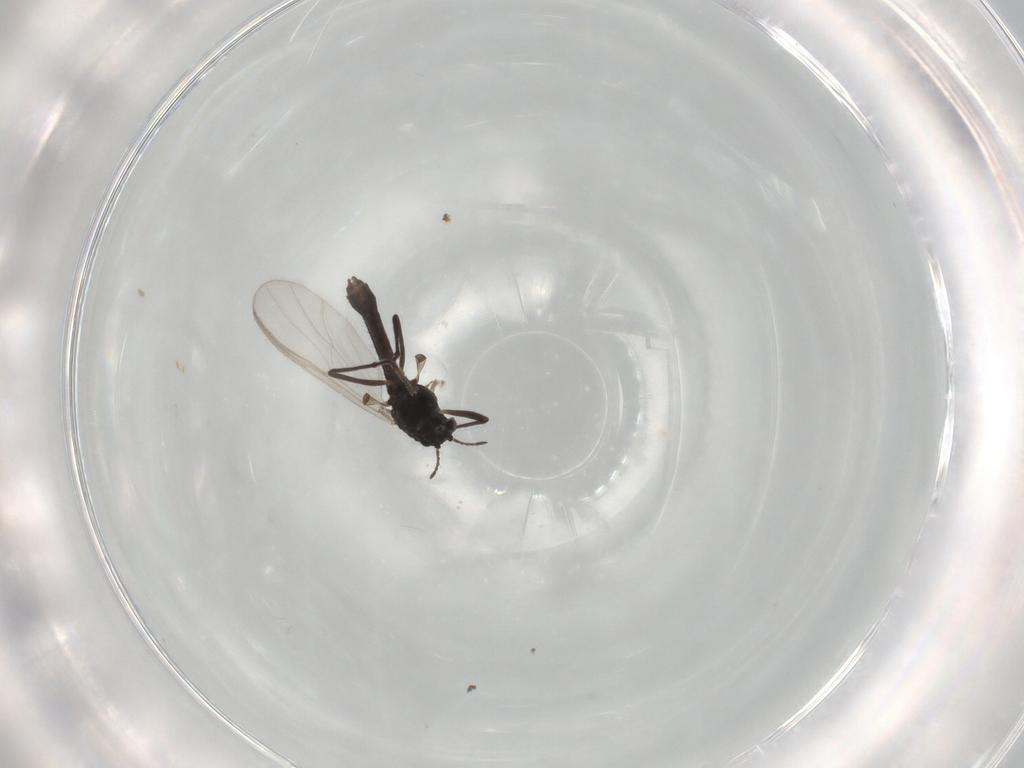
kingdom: Animalia
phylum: Arthropoda
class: Insecta
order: Diptera
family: Chironomidae
